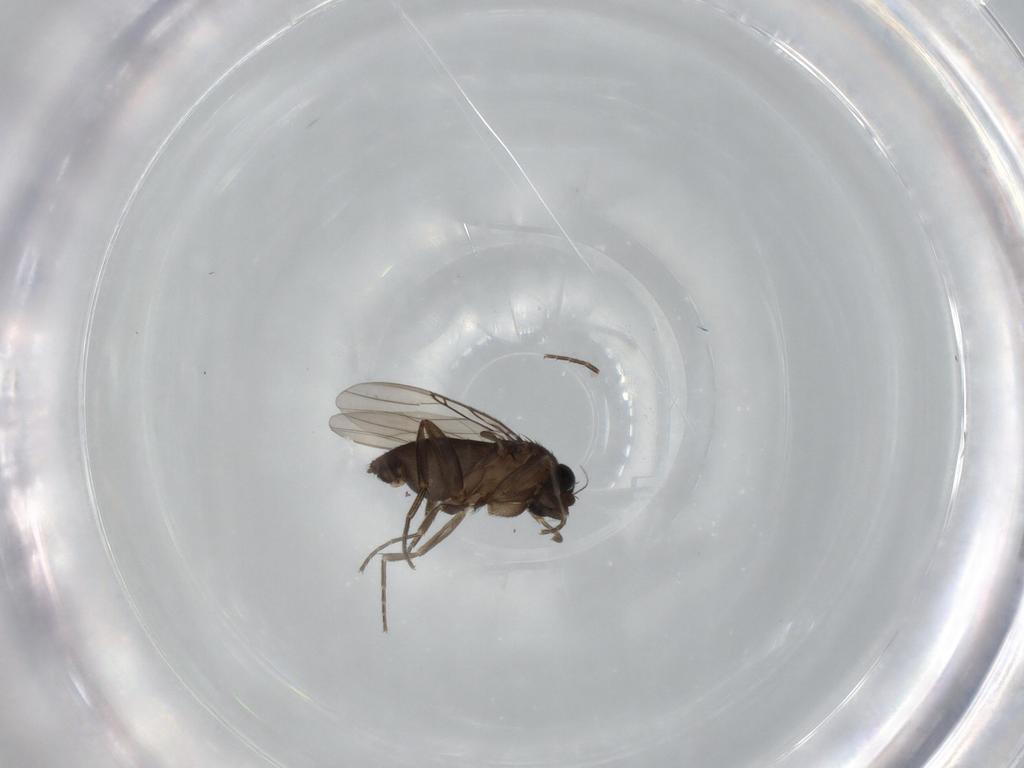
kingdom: Animalia
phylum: Arthropoda
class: Insecta
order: Diptera
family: Phoridae
